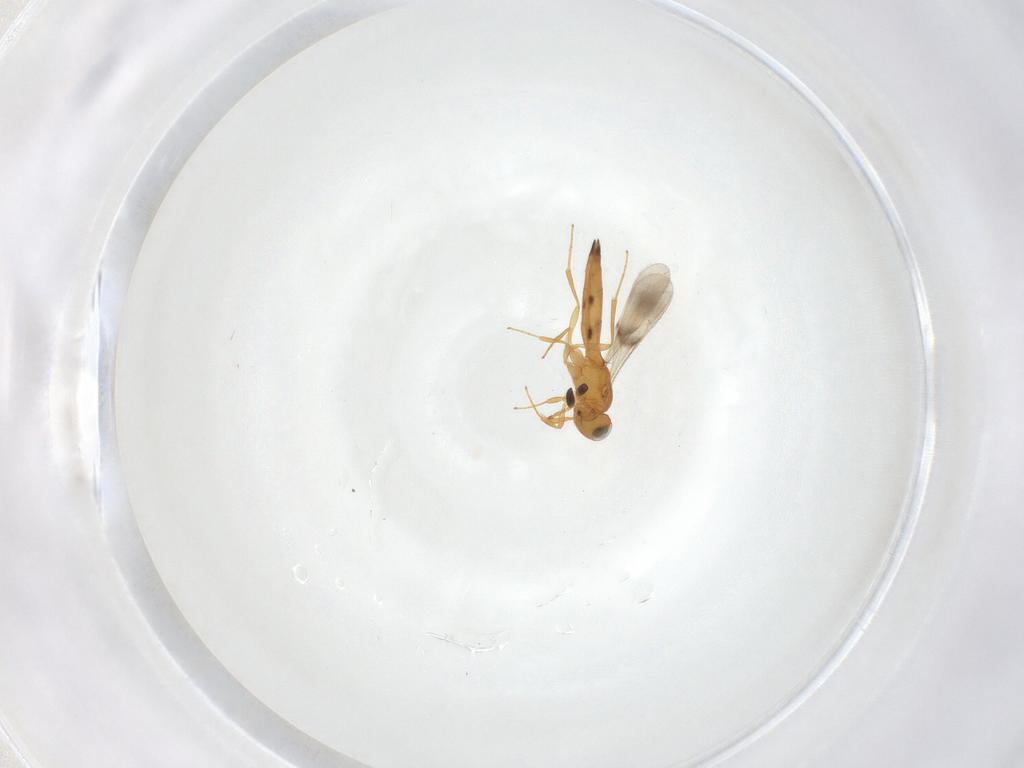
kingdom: Animalia
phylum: Arthropoda
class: Insecta
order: Hymenoptera
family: Scelionidae
